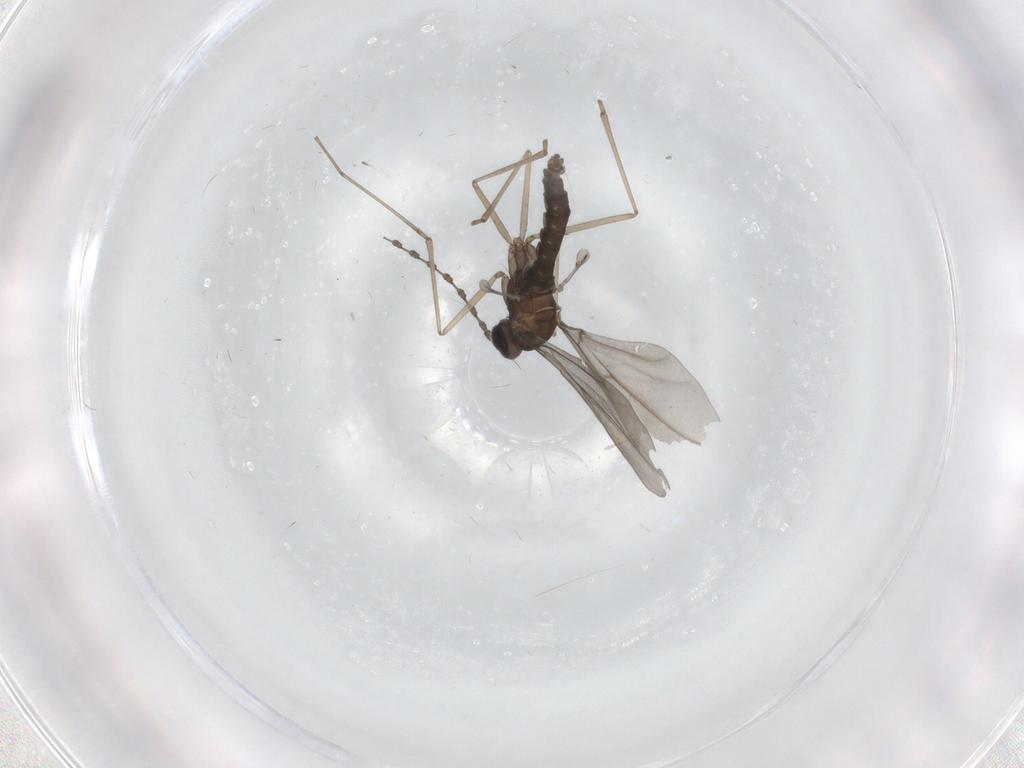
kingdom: Animalia
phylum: Arthropoda
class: Insecta
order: Diptera
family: Cecidomyiidae
